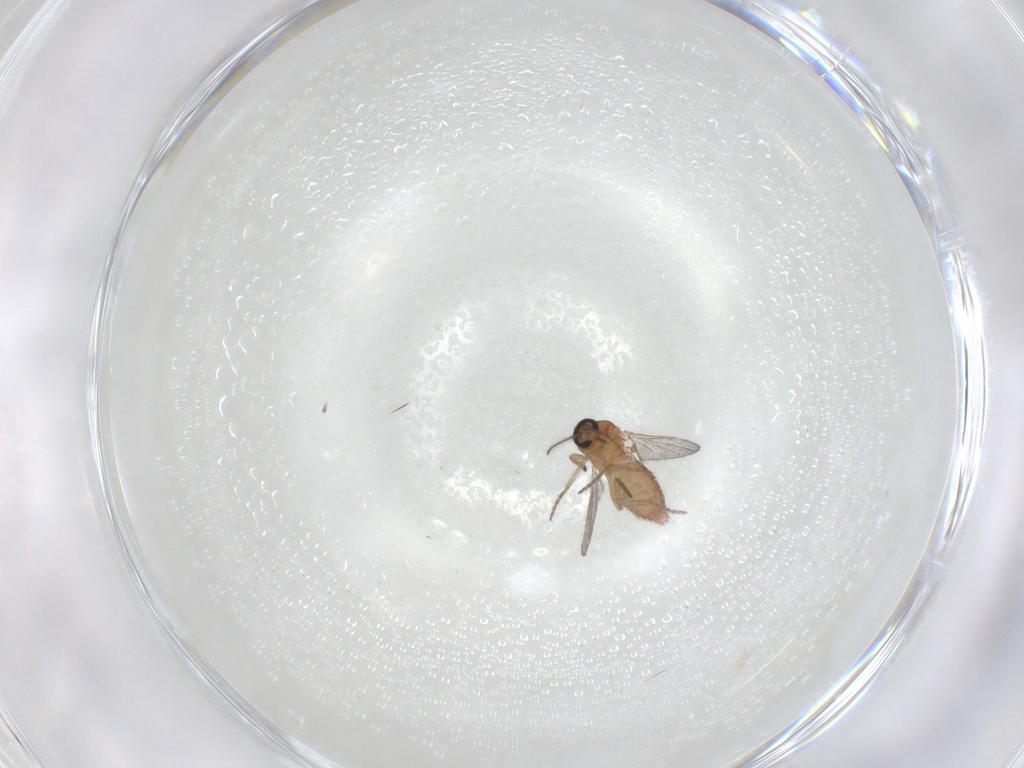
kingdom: Animalia
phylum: Arthropoda
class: Insecta
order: Diptera
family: Ceratopogonidae
